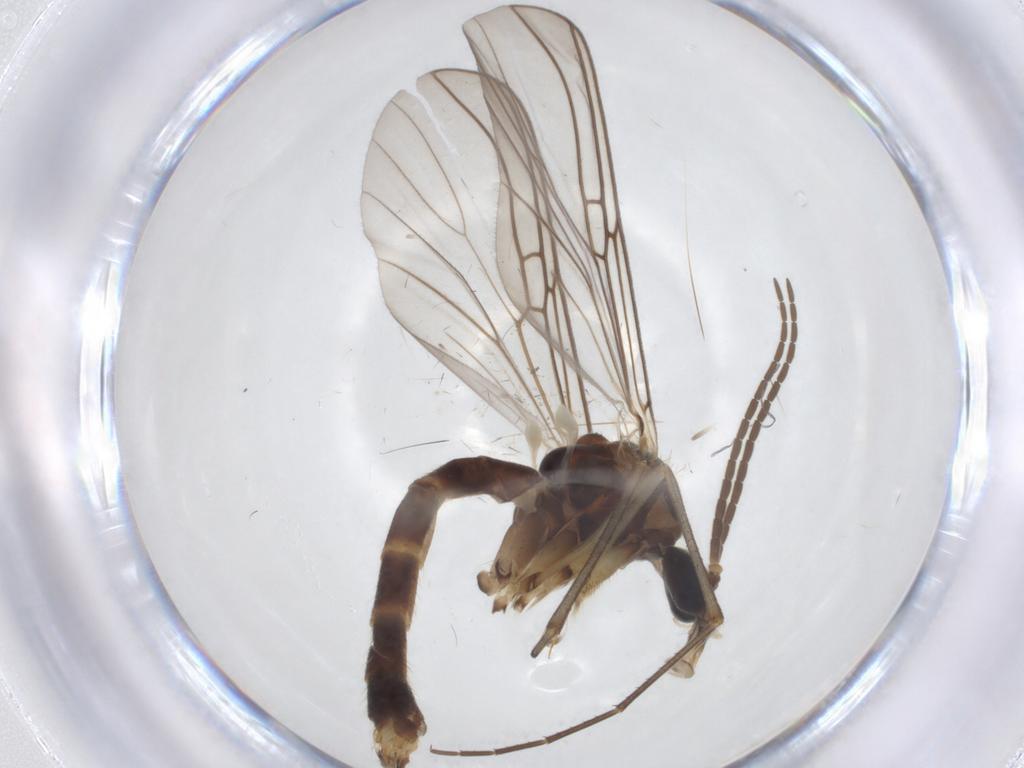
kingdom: Animalia
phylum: Arthropoda
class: Insecta
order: Diptera
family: Mycetophilidae
